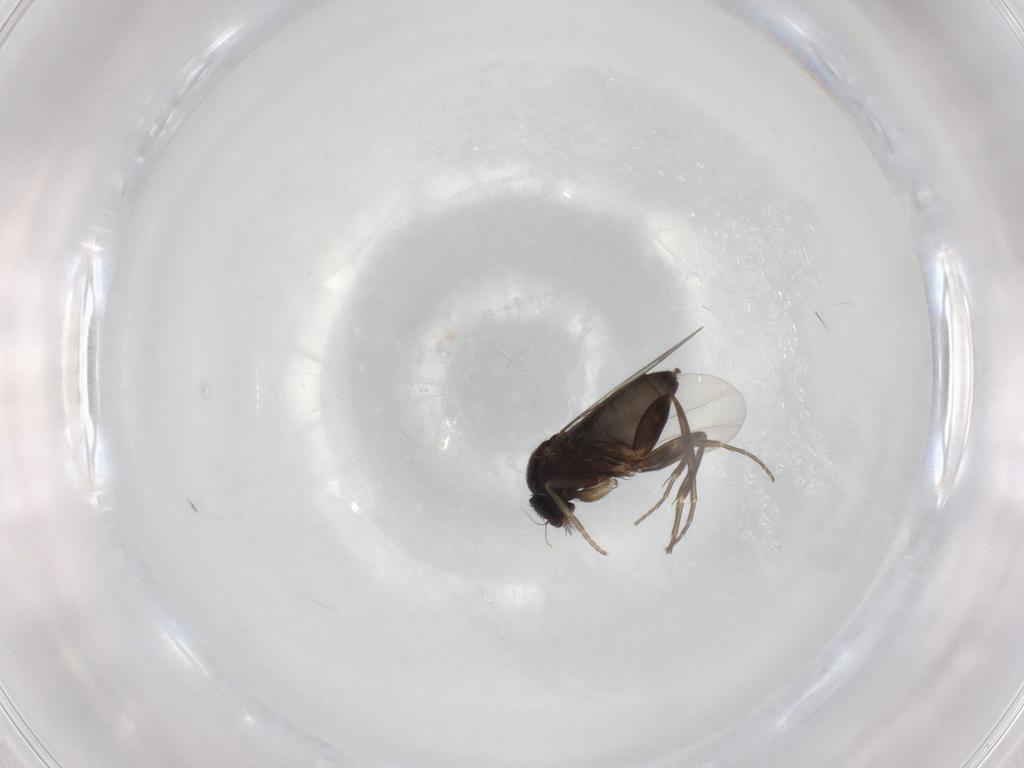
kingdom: Animalia
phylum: Arthropoda
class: Insecta
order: Diptera
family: Phoridae
